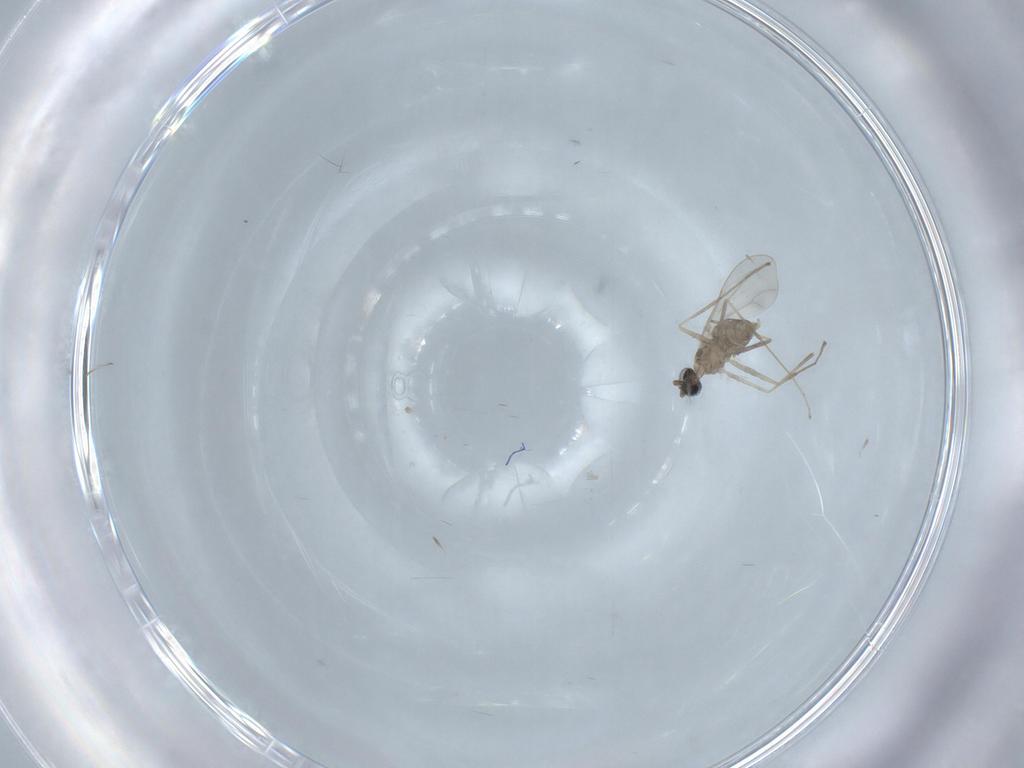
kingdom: Animalia
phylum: Arthropoda
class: Insecta
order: Diptera
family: Cecidomyiidae
